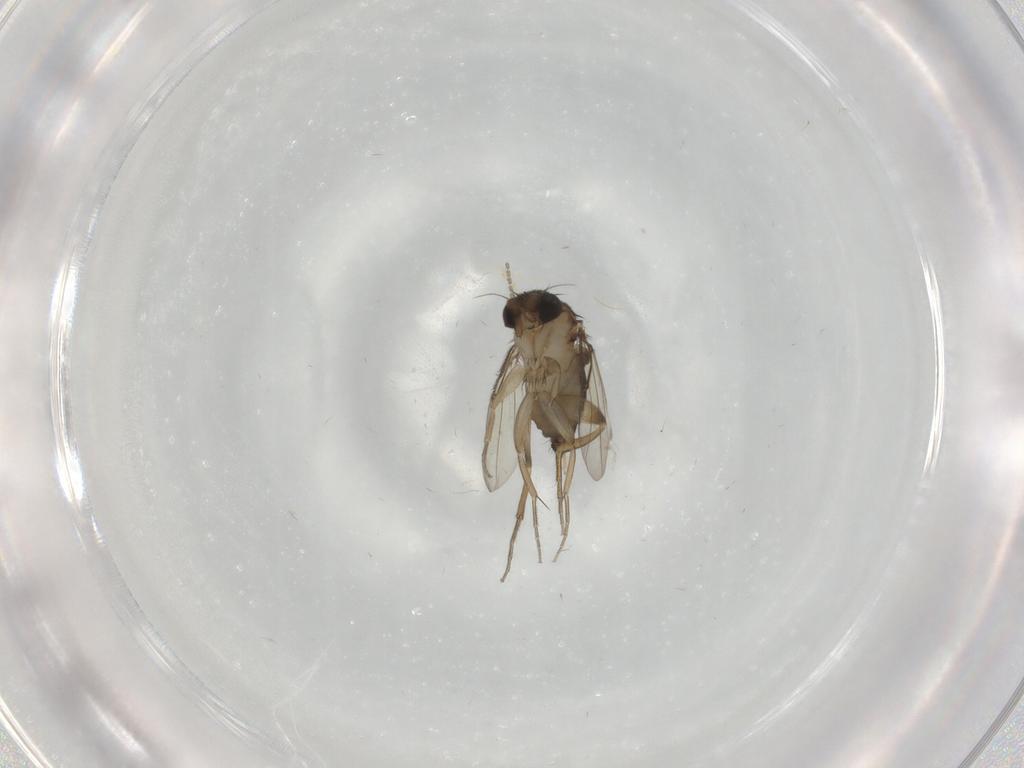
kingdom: Animalia
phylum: Arthropoda
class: Insecta
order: Diptera
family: Phoridae
